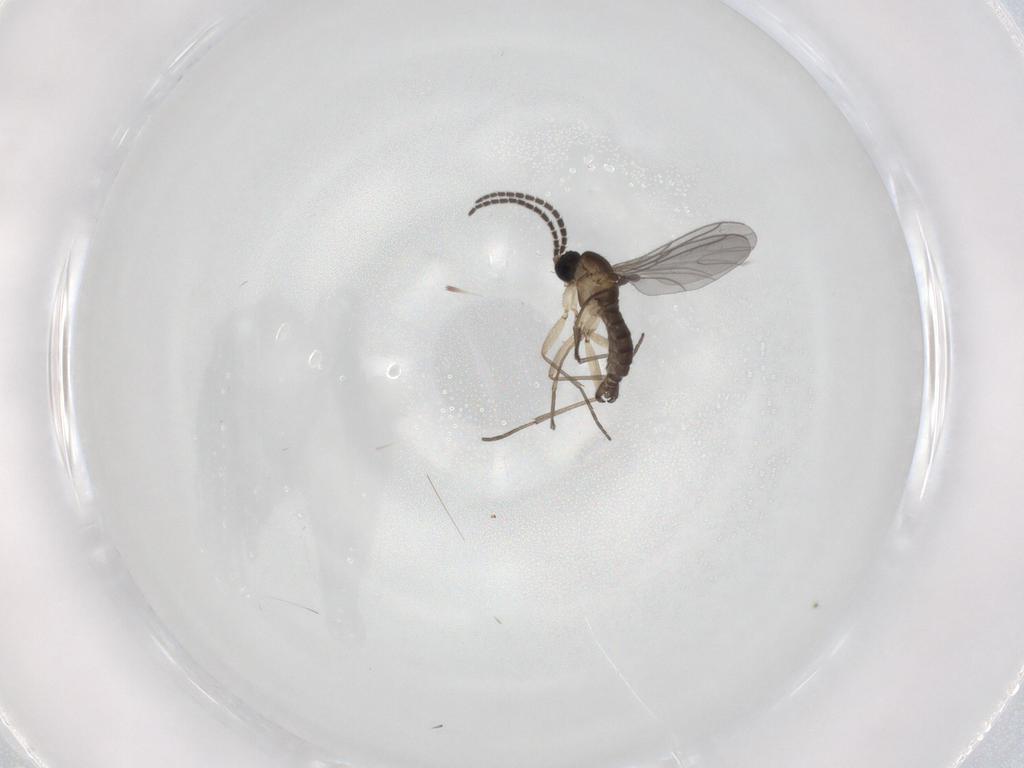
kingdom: Animalia
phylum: Arthropoda
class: Insecta
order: Diptera
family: Sciaridae
